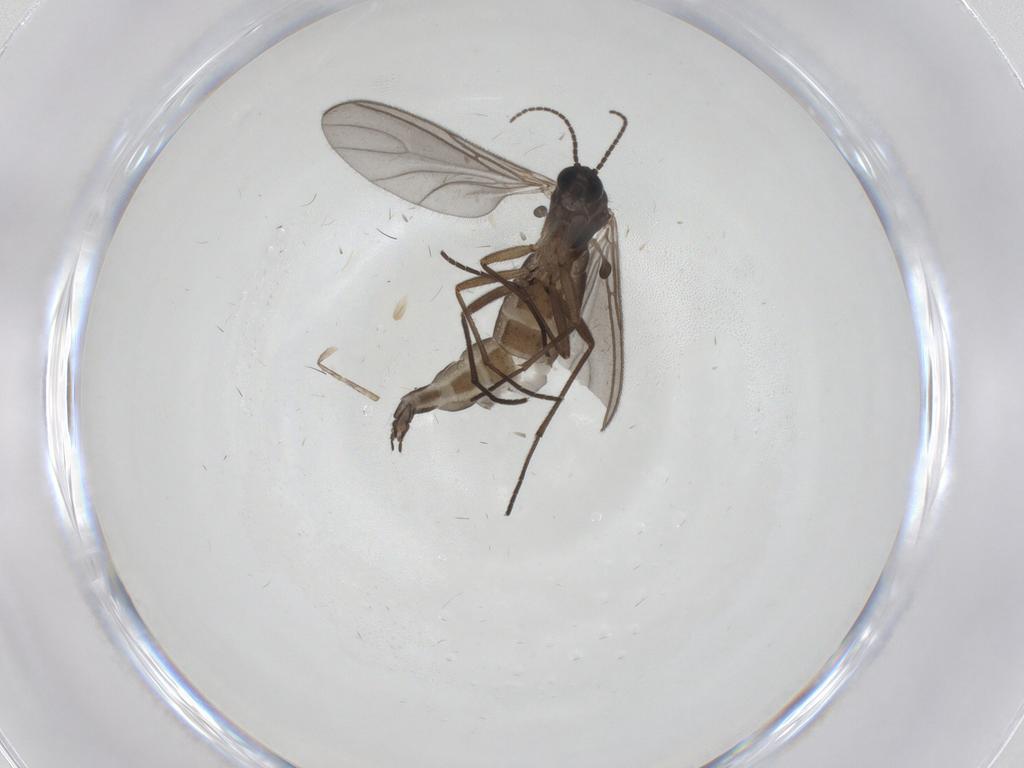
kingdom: Animalia
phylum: Arthropoda
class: Insecta
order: Diptera
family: Sciaridae
